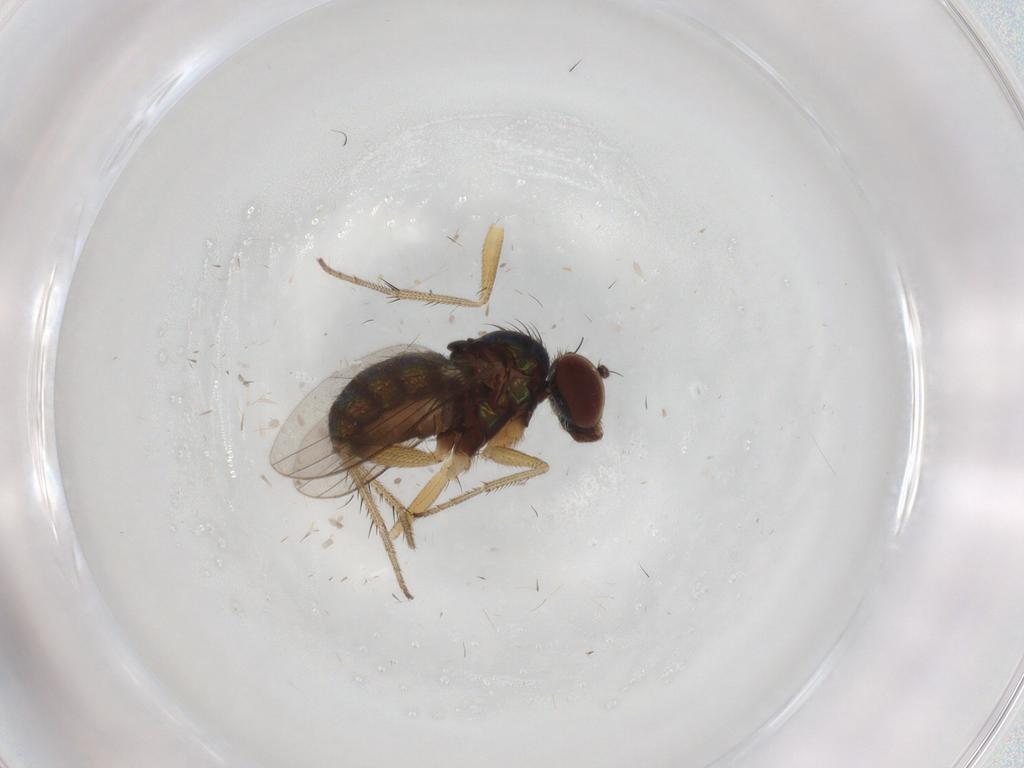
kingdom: Animalia
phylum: Arthropoda
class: Insecta
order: Diptera
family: Dolichopodidae
